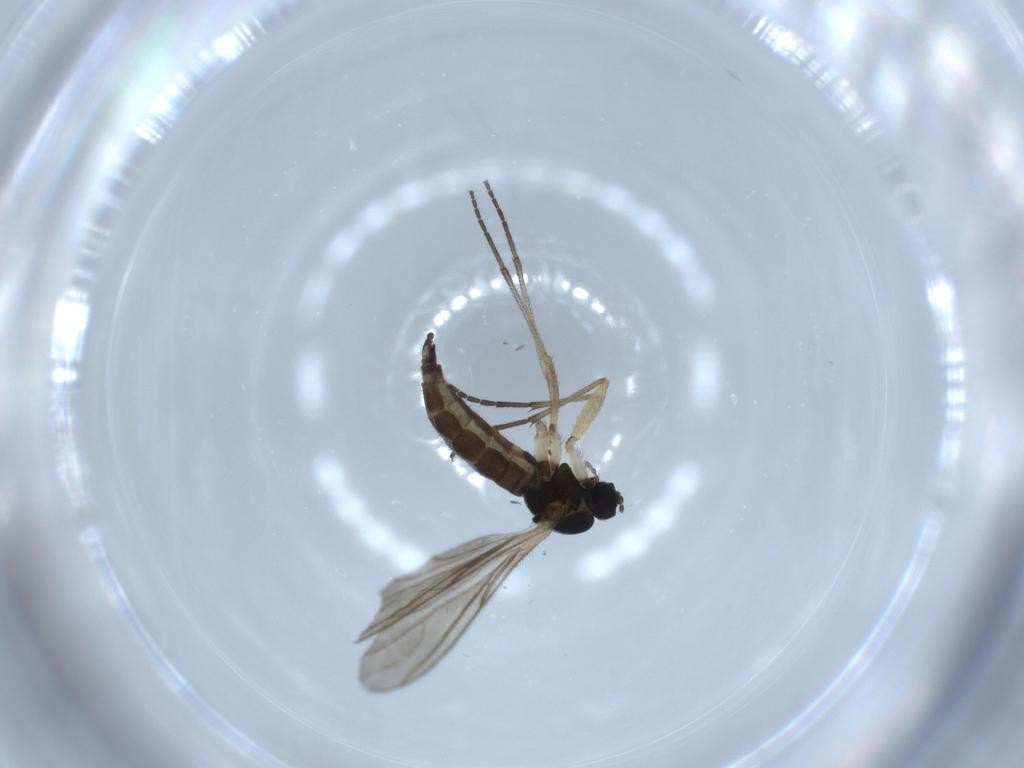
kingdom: Animalia
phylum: Arthropoda
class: Insecta
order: Diptera
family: Sciaridae
